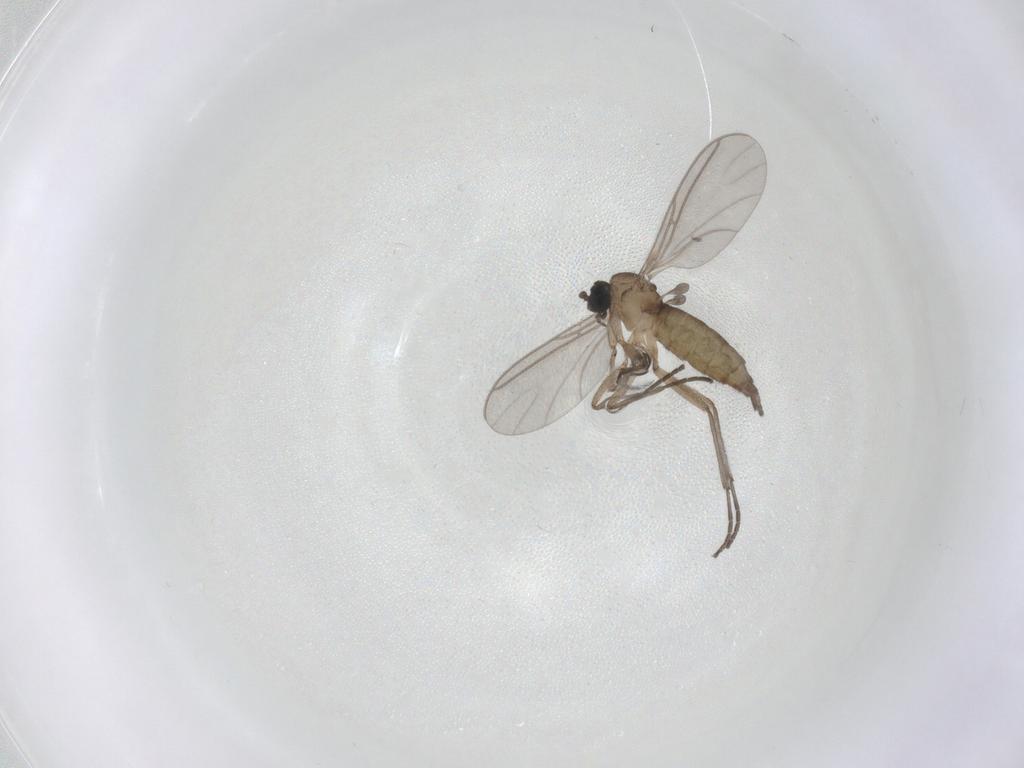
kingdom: Animalia
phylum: Arthropoda
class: Insecta
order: Diptera
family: Sciaridae
